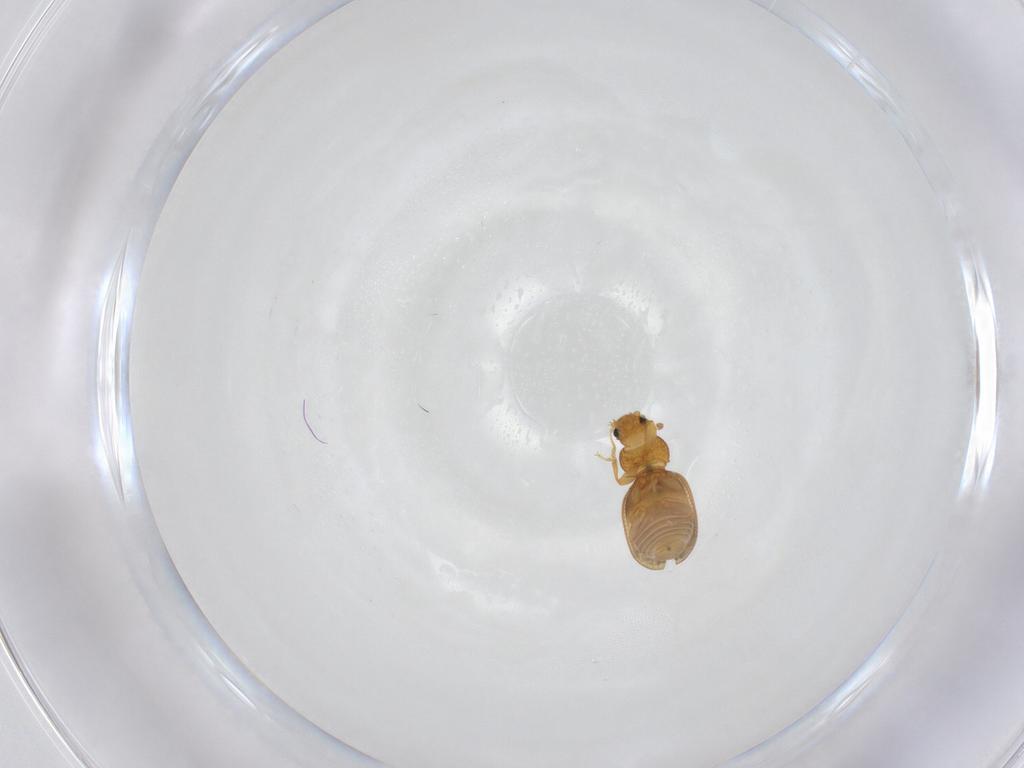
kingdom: Animalia
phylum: Arthropoda
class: Insecta
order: Coleoptera
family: Latridiidae
